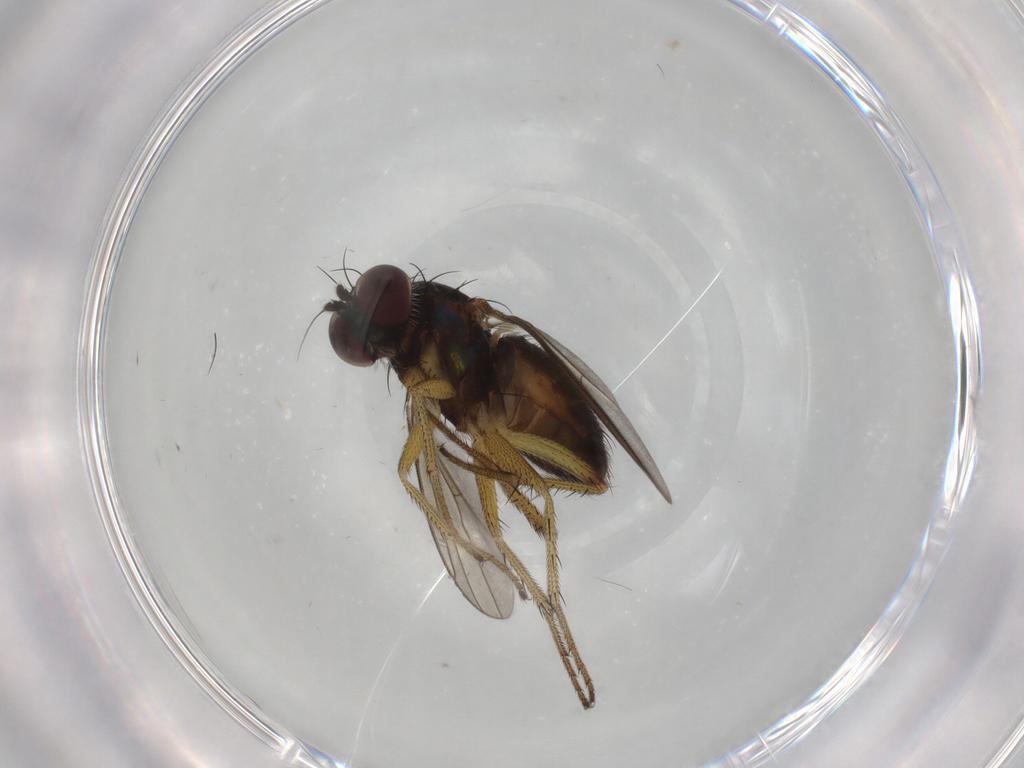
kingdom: Animalia
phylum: Arthropoda
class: Insecta
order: Diptera
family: Dolichopodidae
